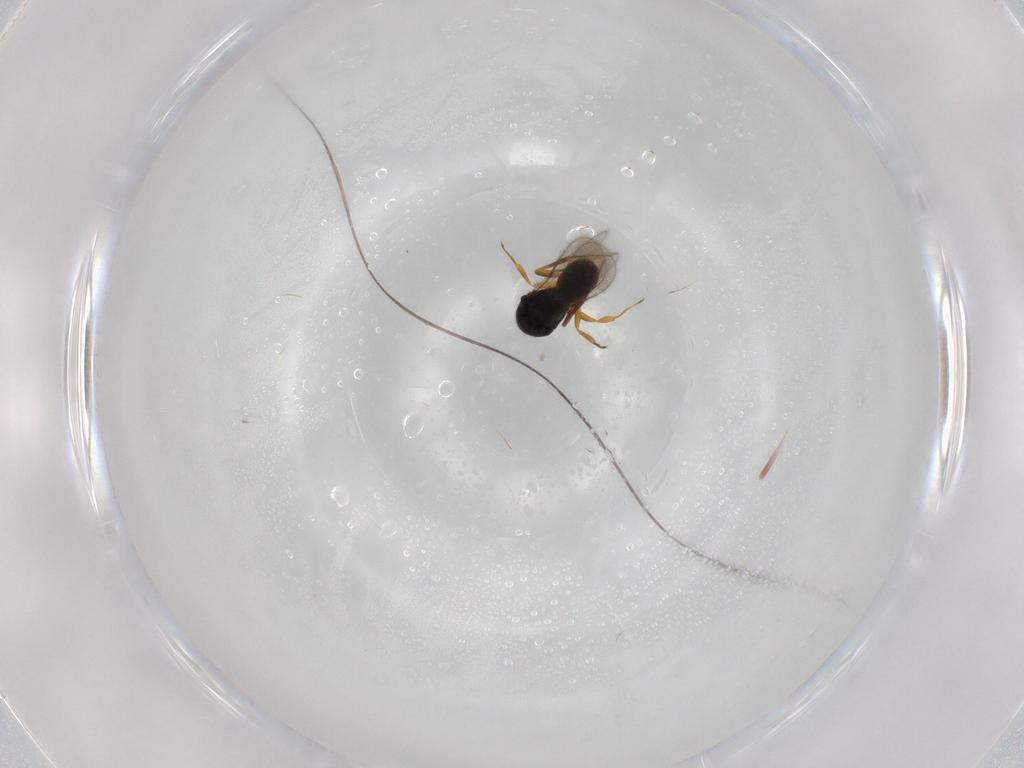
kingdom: Animalia
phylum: Arthropoda
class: Insecta
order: Hymenoptera
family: Scelionidae
